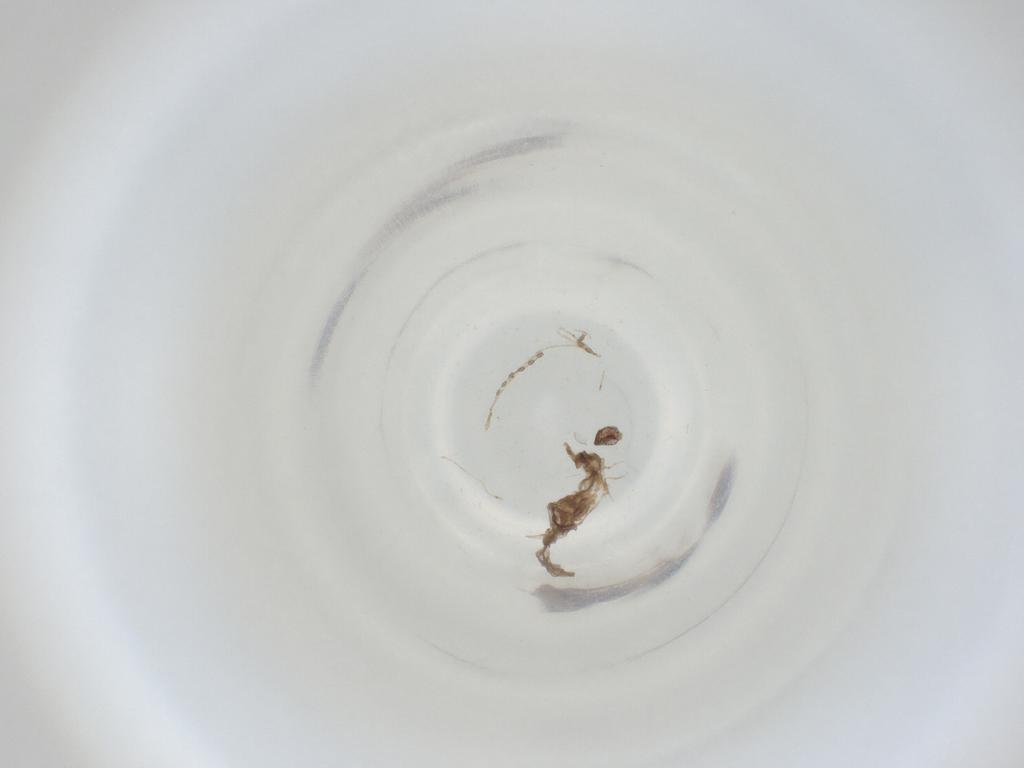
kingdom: Animalia
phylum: Arthropoda
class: Insecta
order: Diptera
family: Cecidomyiidae
